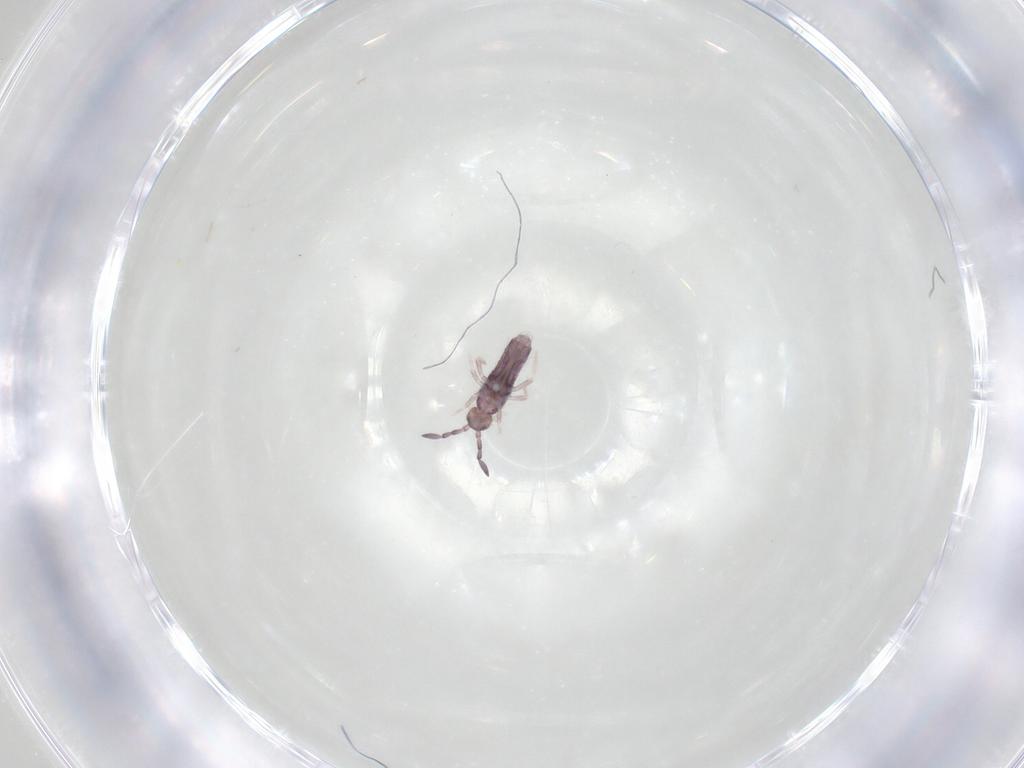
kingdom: Animalia
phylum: Arthropoda
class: Collembola
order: Entomobryomorpha
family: Entomobryidae
